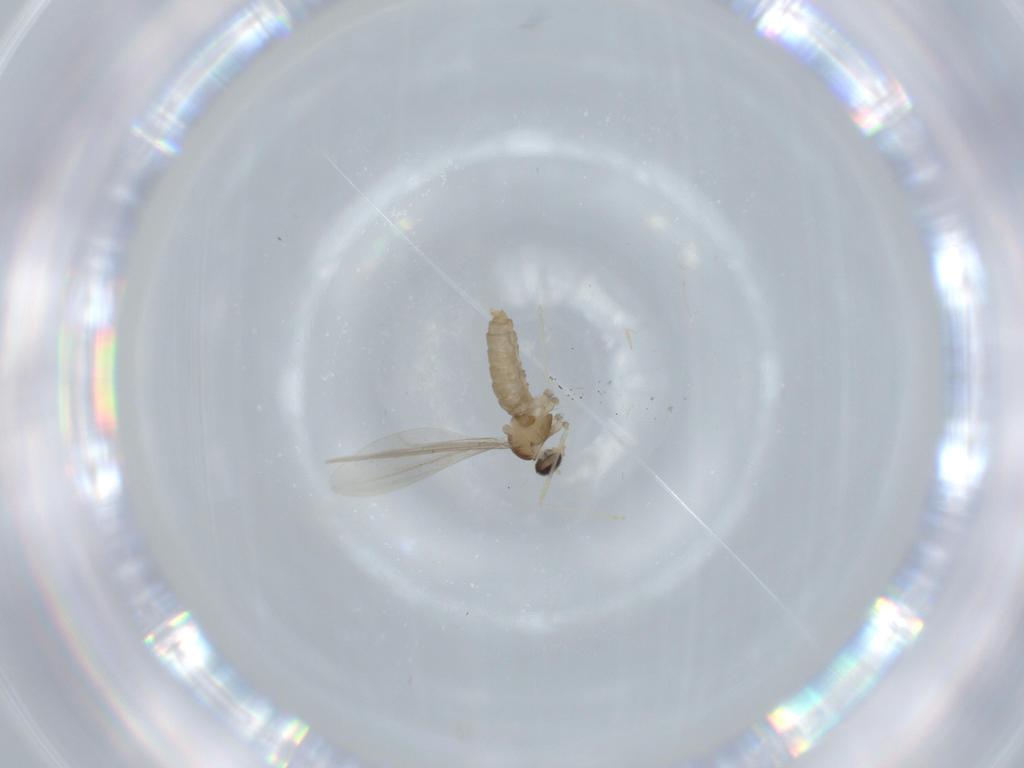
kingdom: Animalia
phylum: Arthropoda
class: Insecta
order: Diptera
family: Cecidomyiidae
